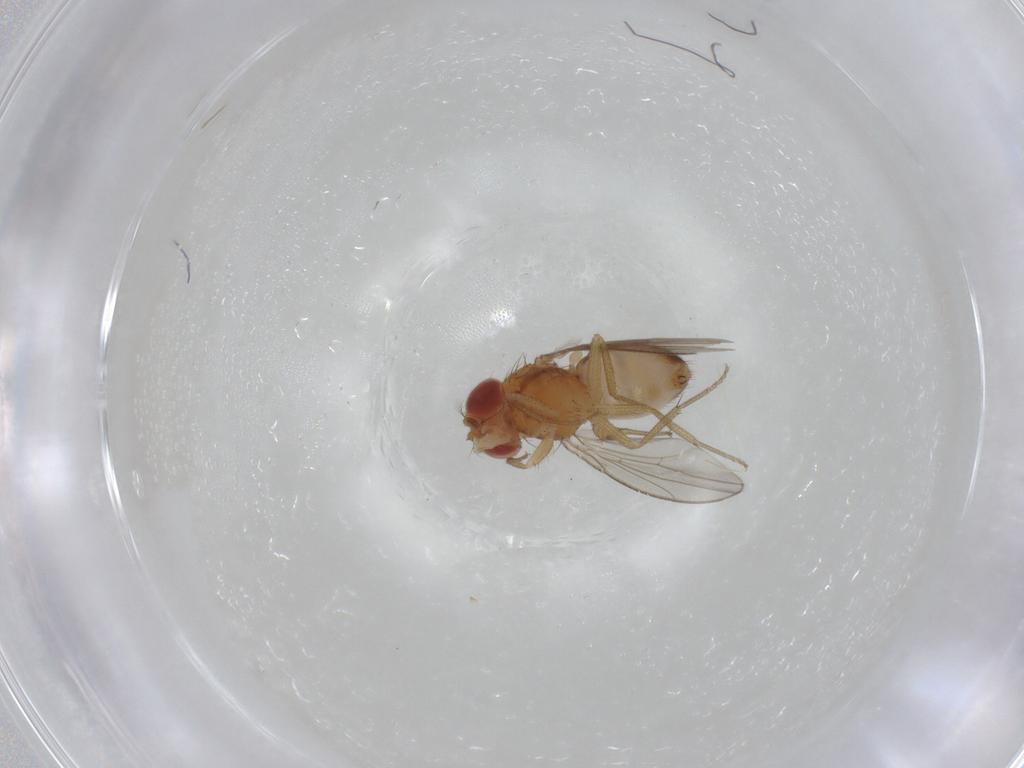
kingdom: Animalia
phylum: Arthropoda
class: Insecta
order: Diptera
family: Drosophilidae
